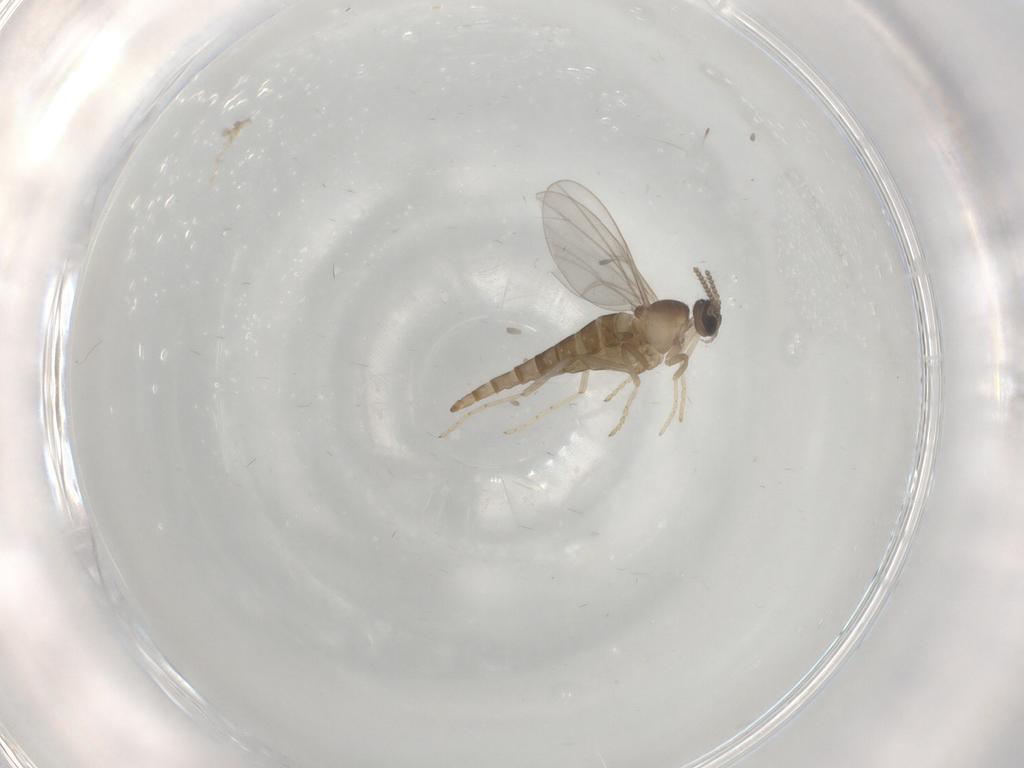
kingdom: Animalia
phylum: Arthropoda
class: Insecta
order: Diptera
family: Cecidomyiidae
